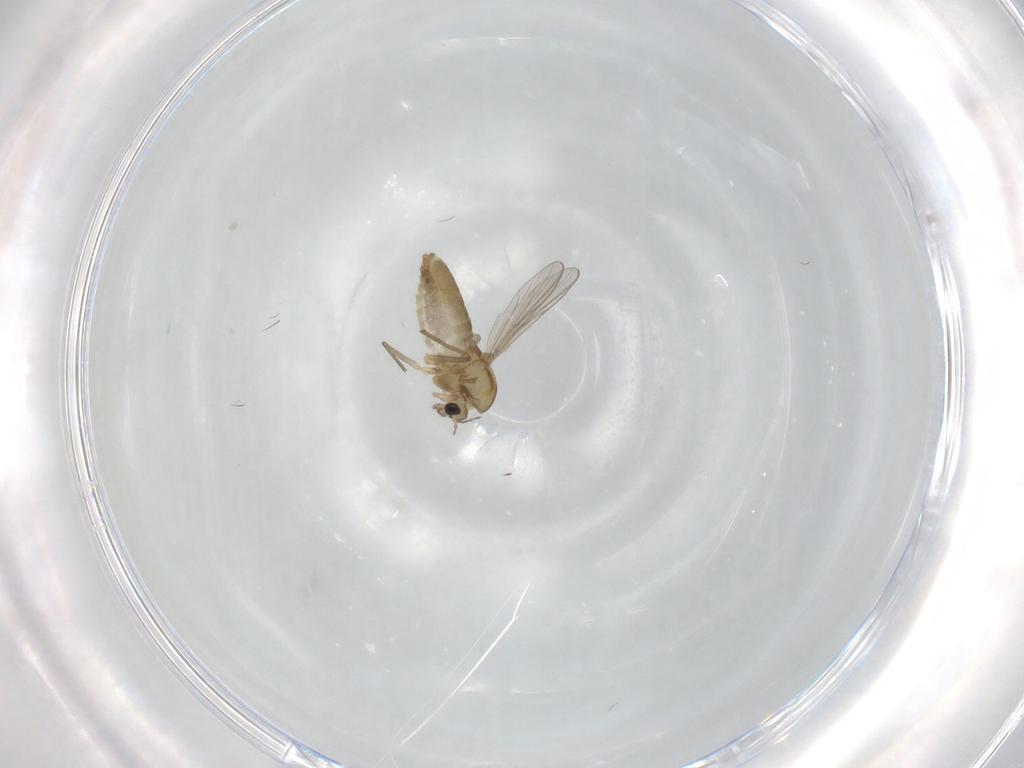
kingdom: Animalia
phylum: Arthropoda
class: Insecta
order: Diptera
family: Chironomidae
